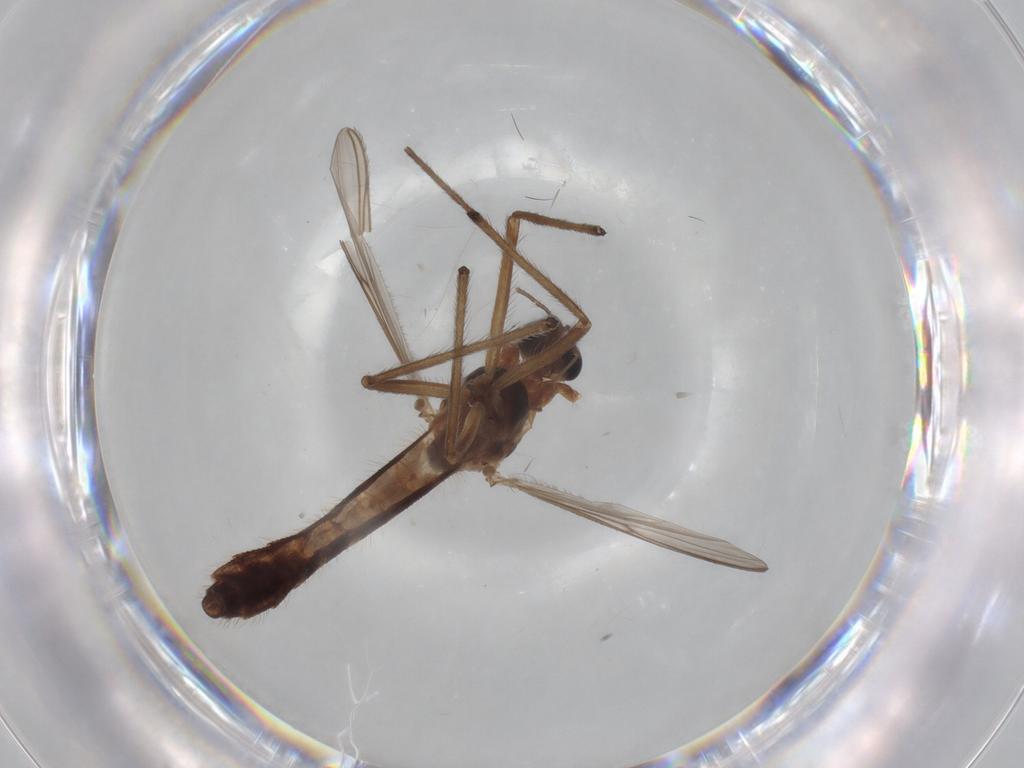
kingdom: Animalia
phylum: Arthropoda
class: Insecta
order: Diptera
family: Chironomidae
